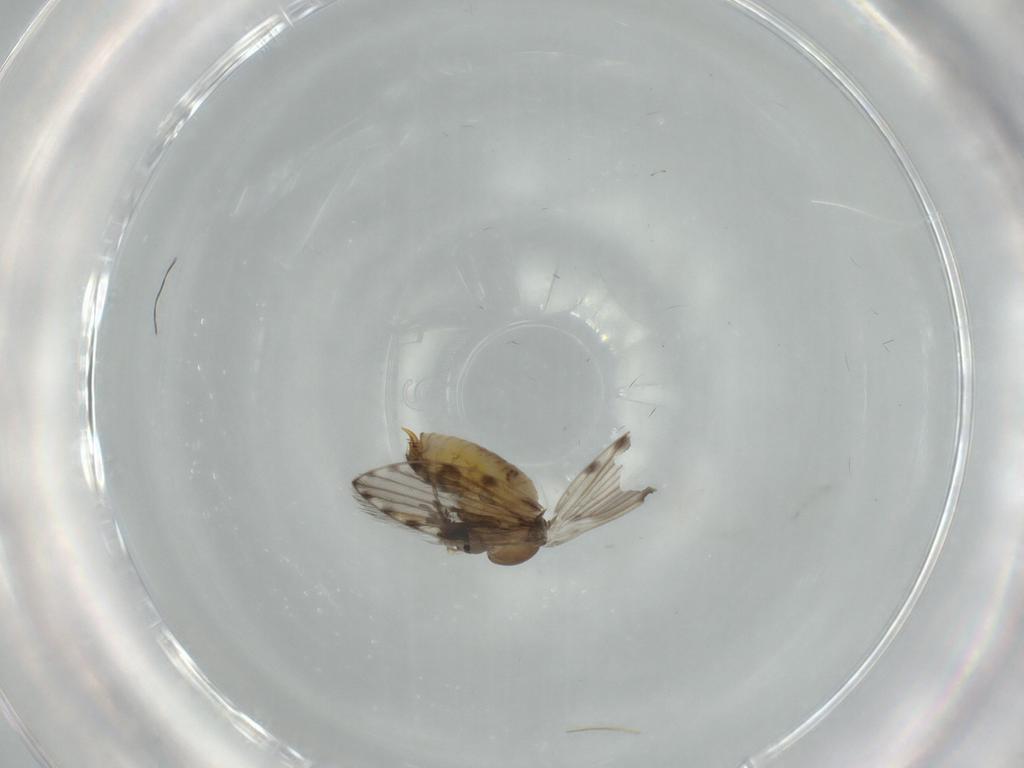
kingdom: Animalia
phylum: Arthropoda
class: Insecta
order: Diptera
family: Psychodidae
